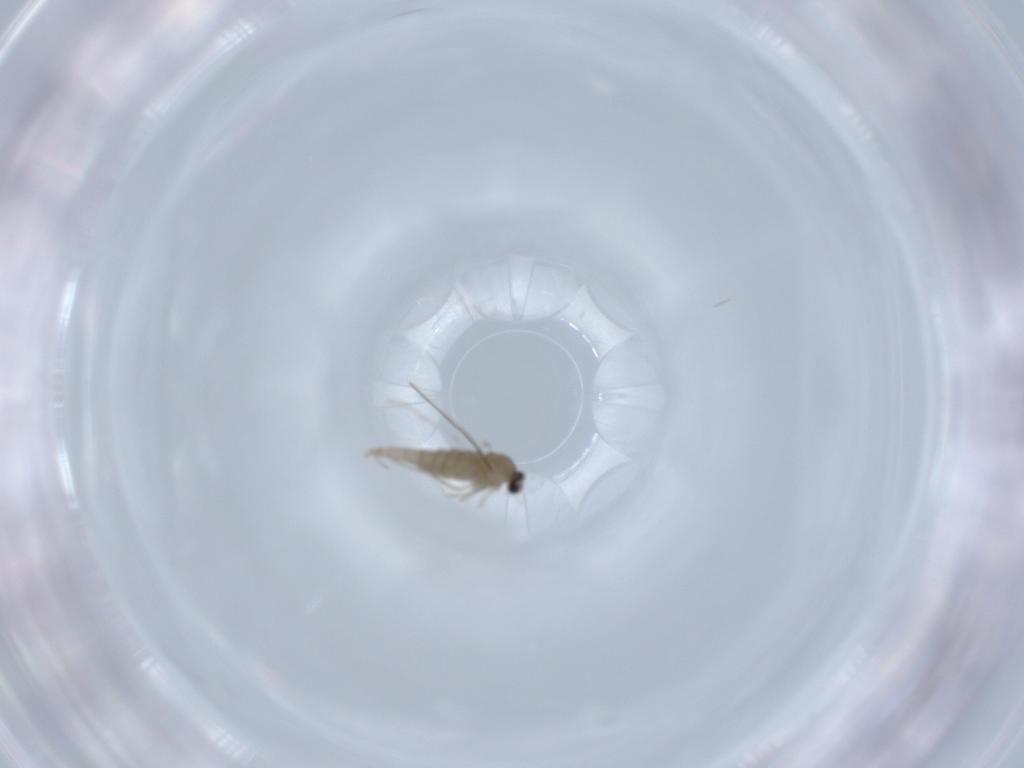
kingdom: Animalia
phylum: Arthropoda
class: Insecta
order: Diptera
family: Cecidomyiidae
